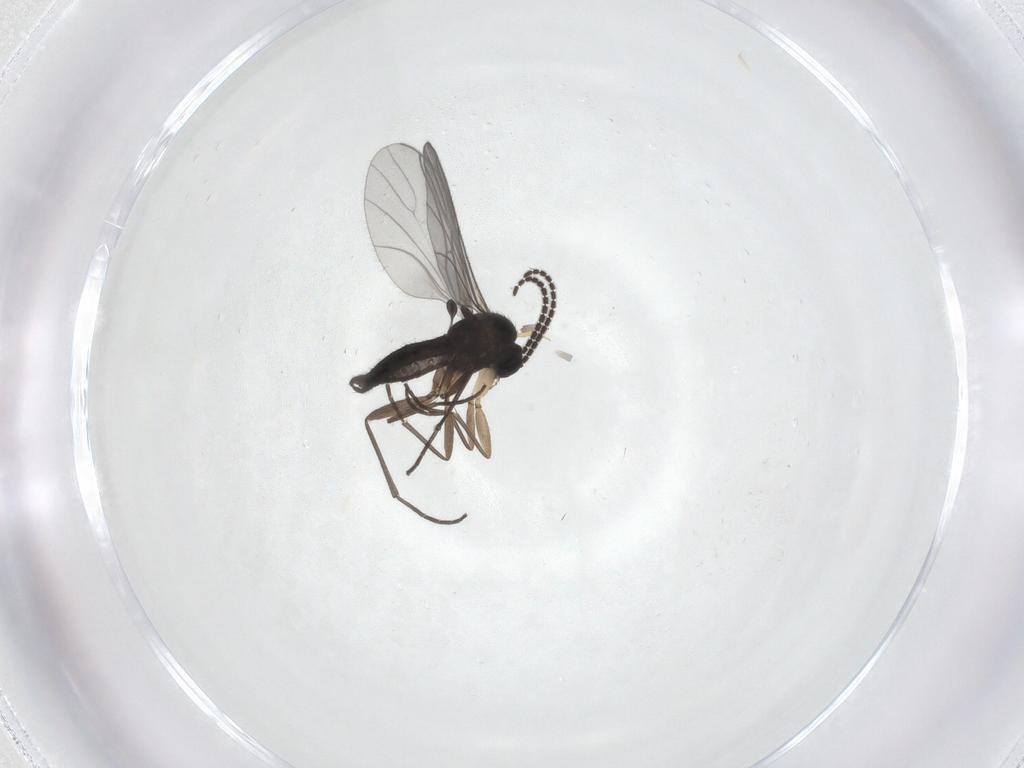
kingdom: Animalia
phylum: Arthropoda
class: Insecta
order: Diptera
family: Sciaridae
